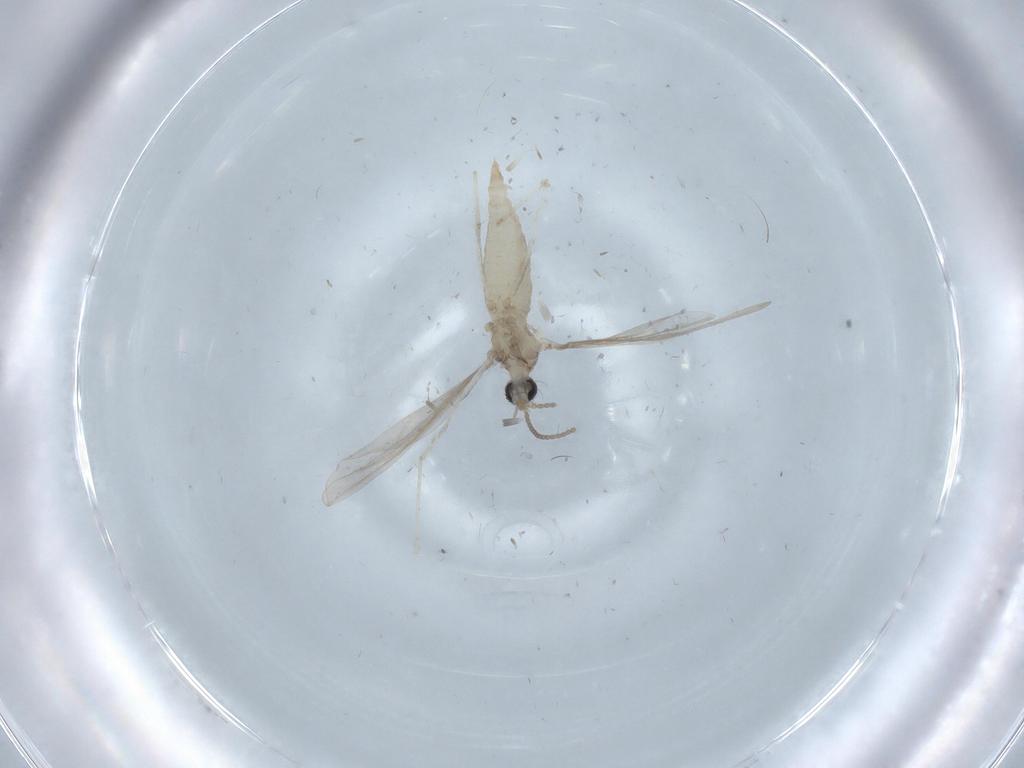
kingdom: Animalia
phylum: Arthropoda
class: Insecta
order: Diptera
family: Cecidomyiidae
